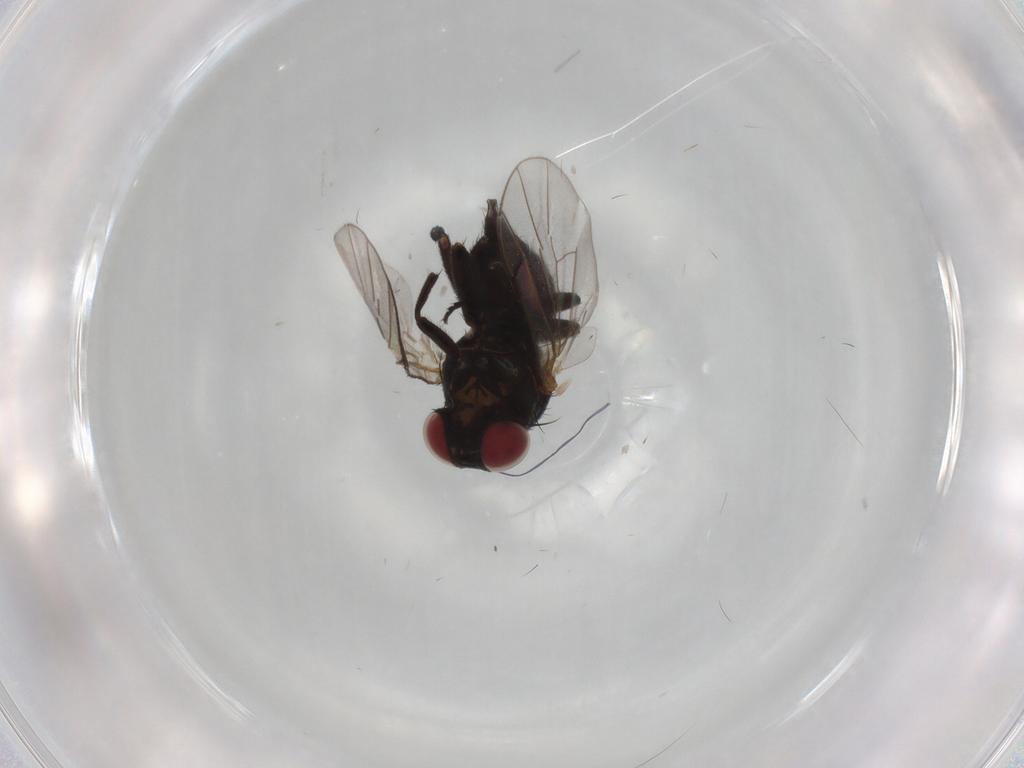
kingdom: Animalia
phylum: Arthropoda
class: Insecta
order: Diptera
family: Agromyzidae
